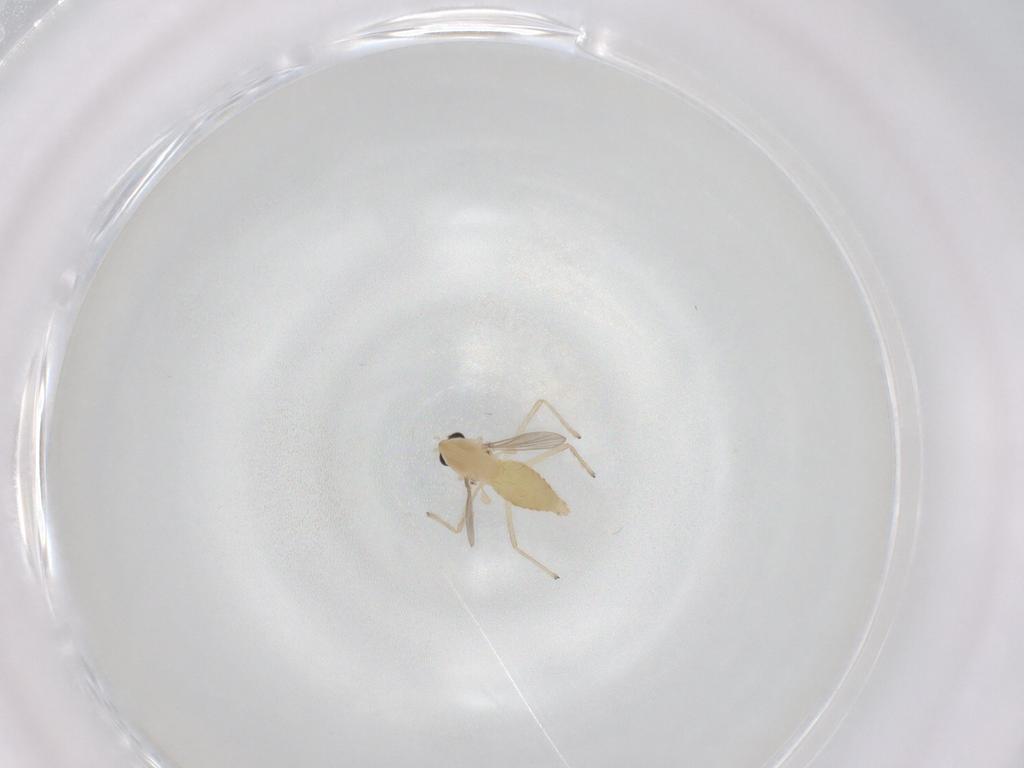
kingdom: Animalia
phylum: Arthropoda
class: Insecta
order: Diptera
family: Chironomidae
